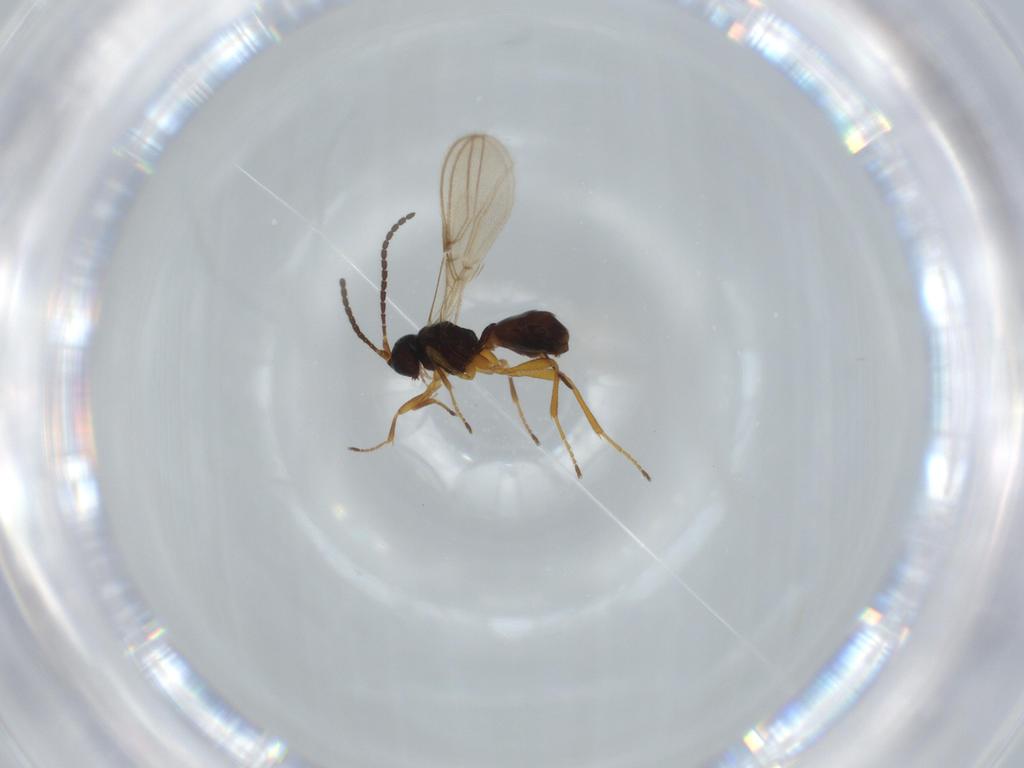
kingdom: Animalia
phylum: Arthropoda
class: Insecta
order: Hymenoptera
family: Braconidae
